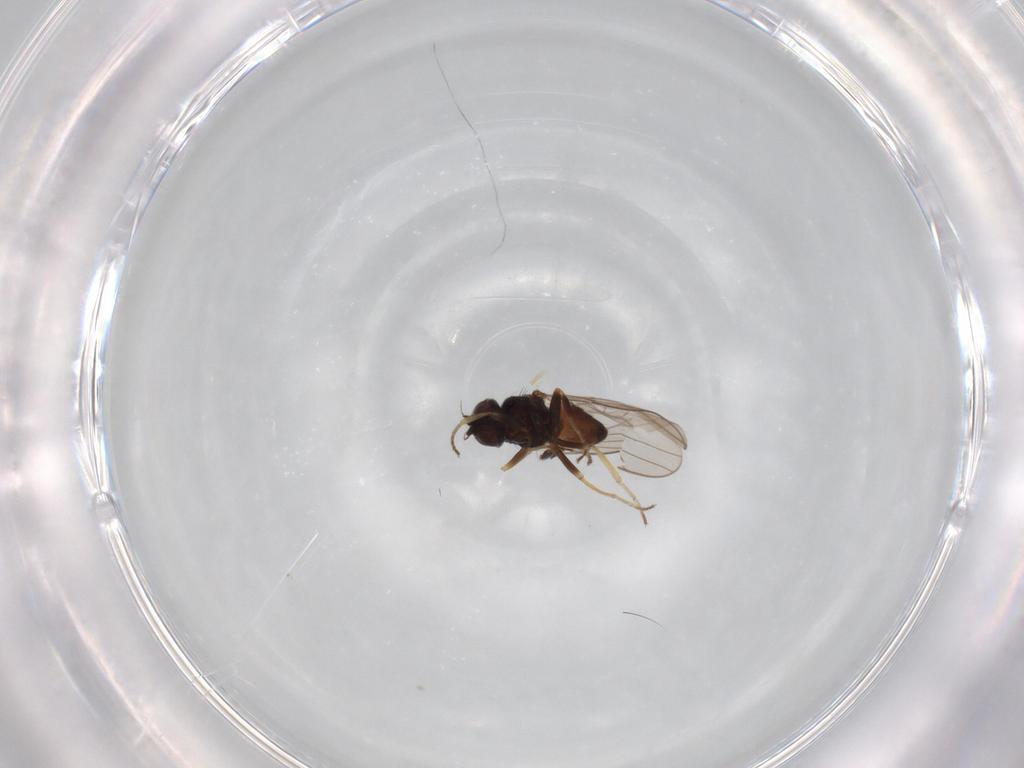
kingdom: Animalia
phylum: Arthropoda
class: Insecta
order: Diptera
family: Chloropidae
